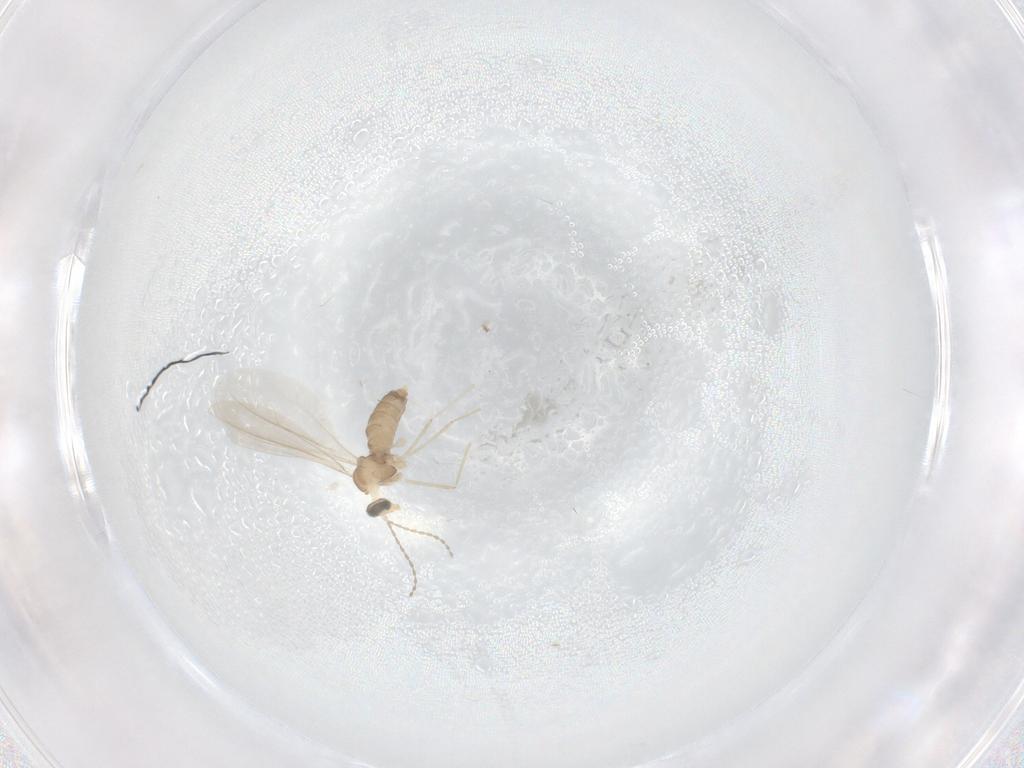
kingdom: Animalia
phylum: Arthropoda
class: Insecta
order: Diptera
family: Cecidomyiidae
